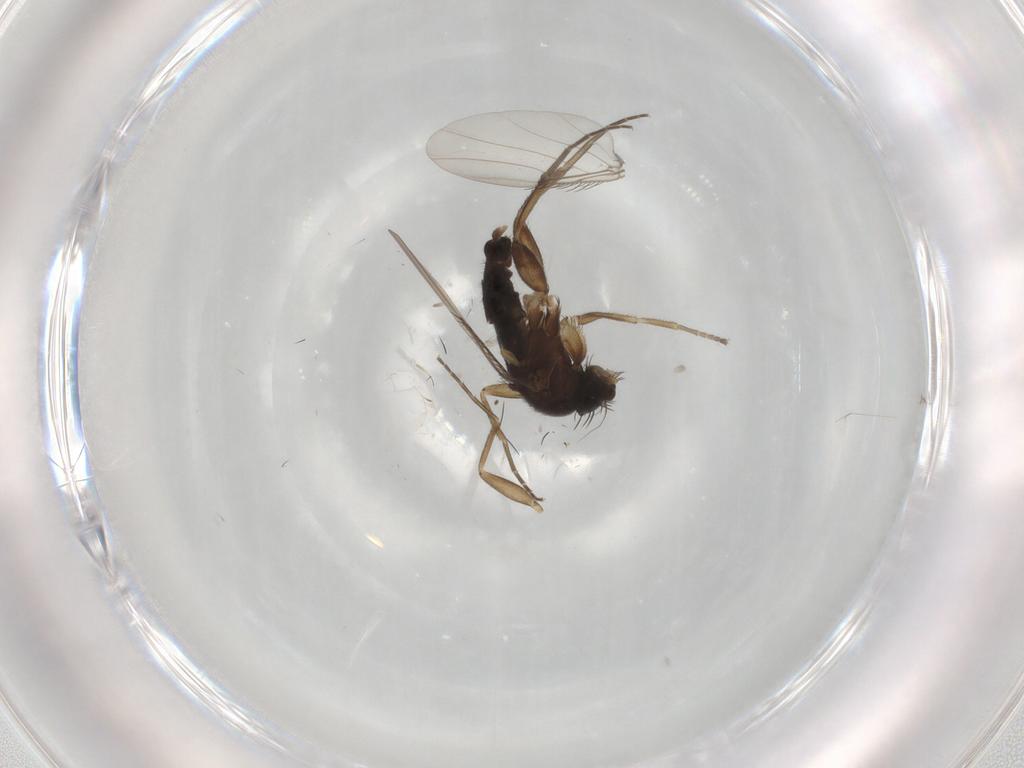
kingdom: Animalia
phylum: Arthropoda
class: Insecta
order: Diptera
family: Phoridae
